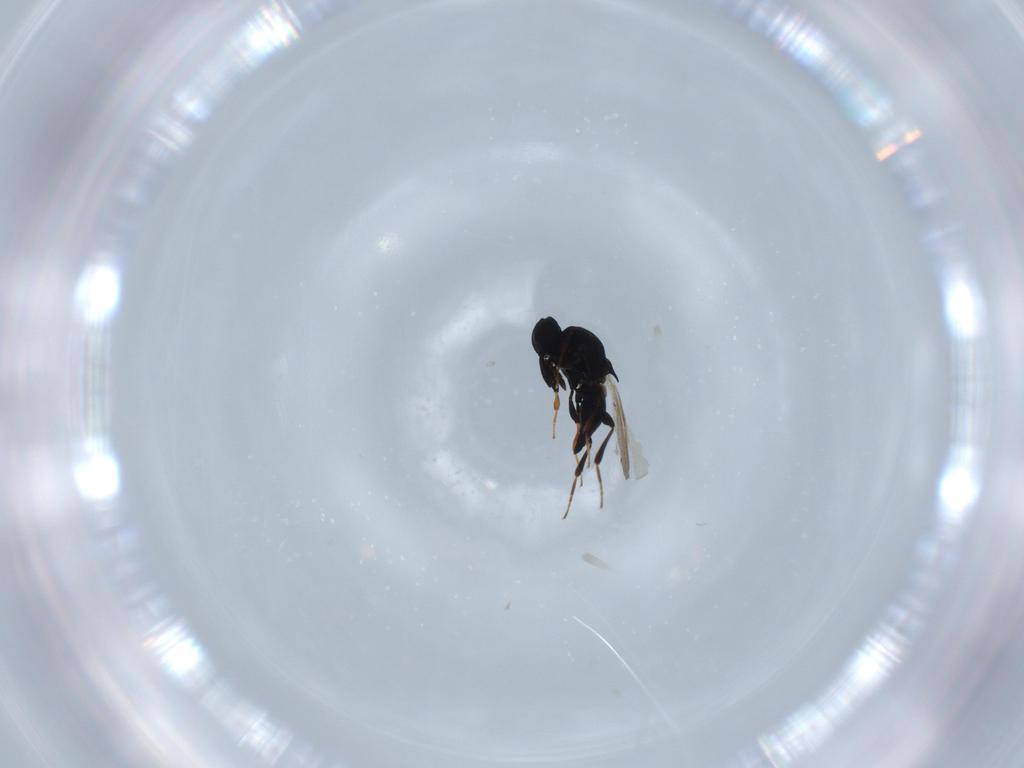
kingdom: Animalia
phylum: Arthropoda
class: Insecta
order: Hymenoptera
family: Platygastridae
